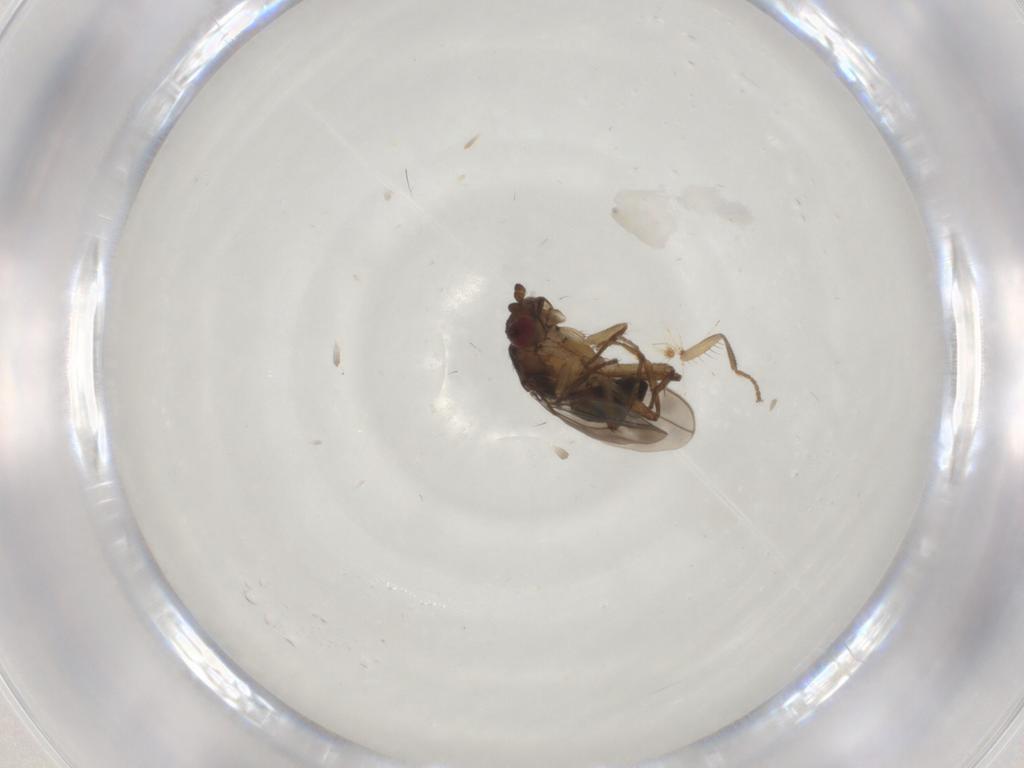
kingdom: Animalia
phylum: Arthropoda
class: Insecta
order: Diptera
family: Sphaeroceridae
